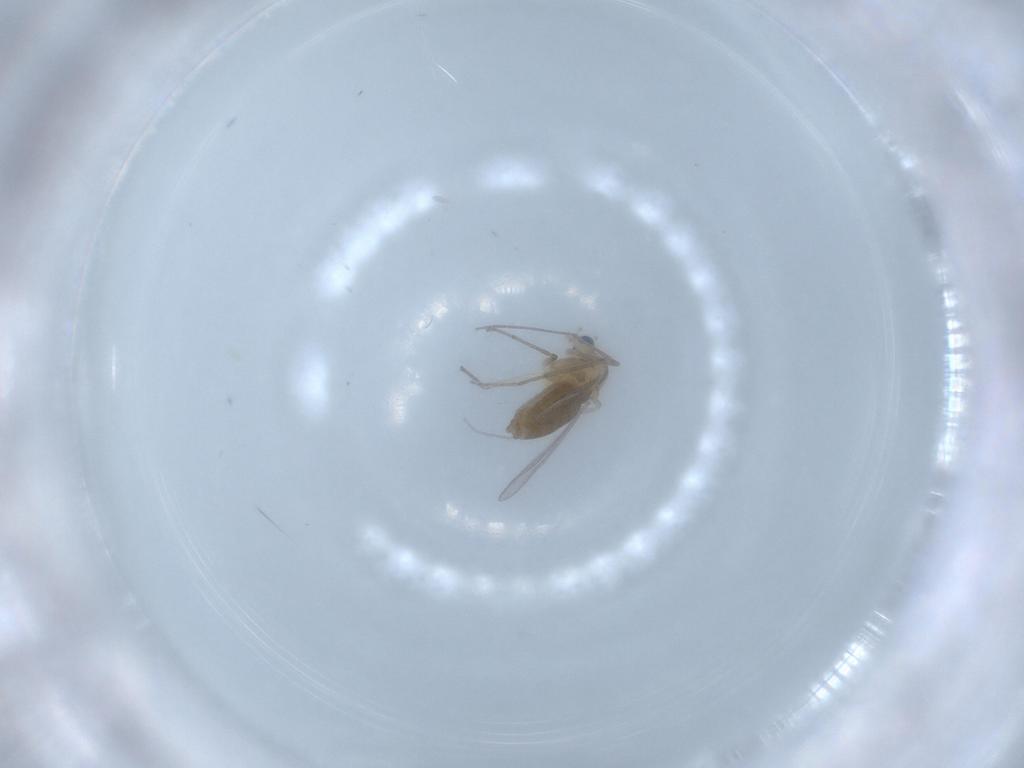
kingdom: Animalia
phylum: Arthropoda
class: Insecta
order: Diptera
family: Chironomidae
